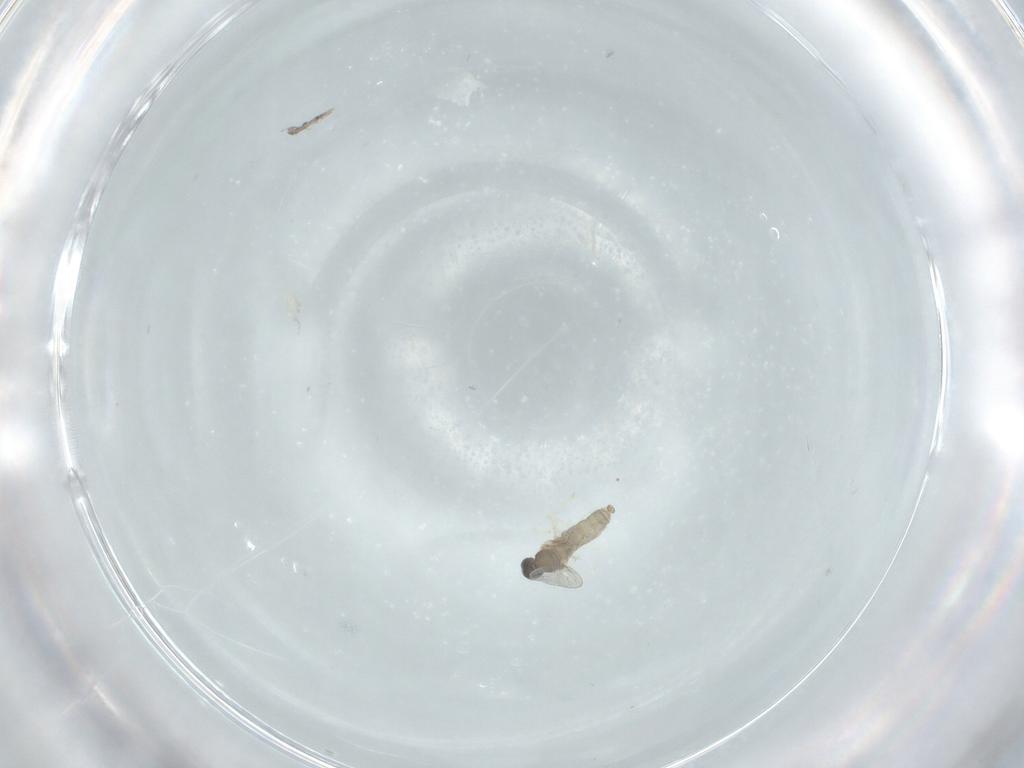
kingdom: Animalia
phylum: Arthropoda
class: Insecta
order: Diptera
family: Cecidomyiidae
